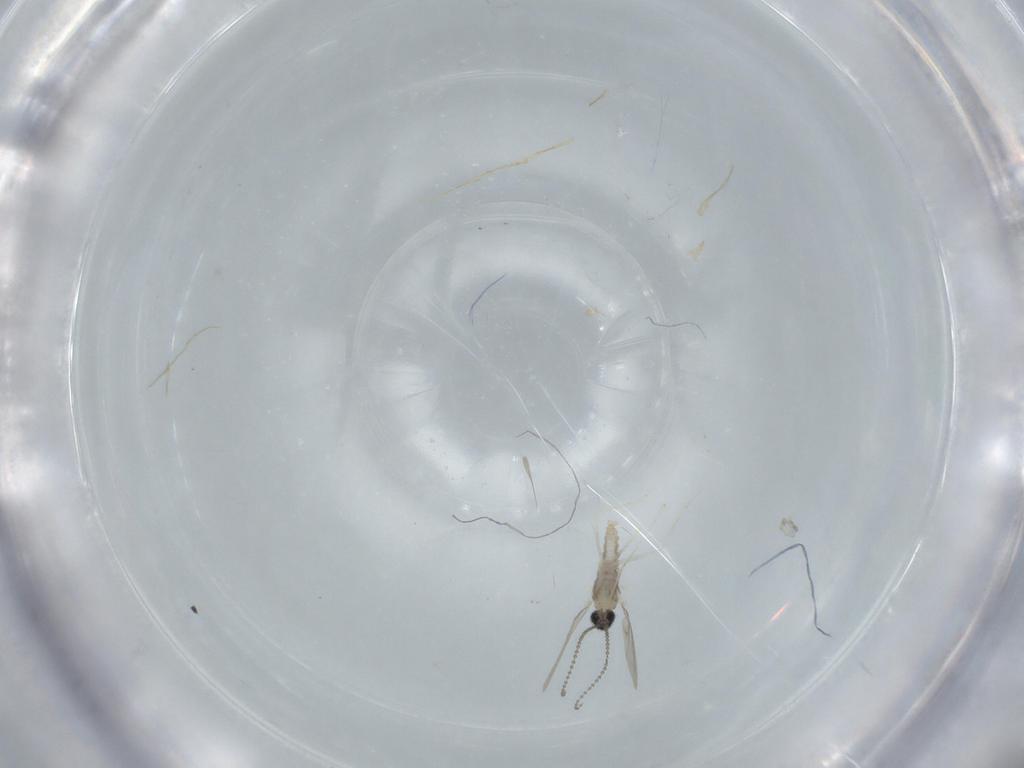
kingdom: Animalia
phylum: Arthropoda
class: Insecta
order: Diptera
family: Cecidomyiidae
